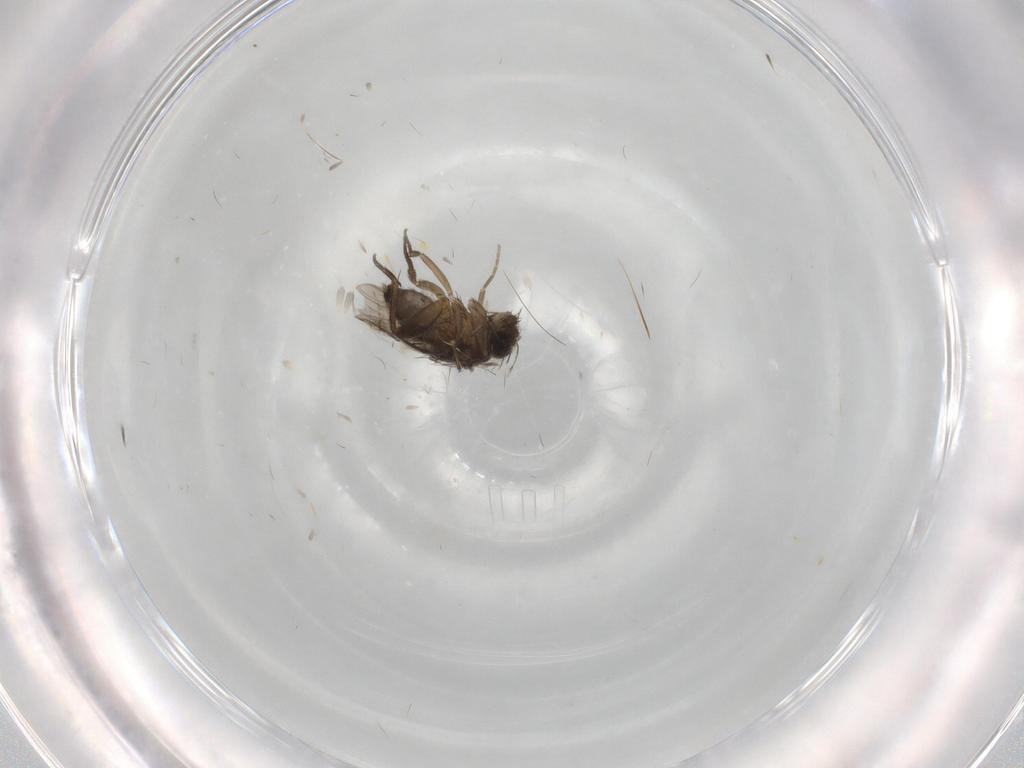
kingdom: Animalia
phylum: Arthropoda
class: Insecta
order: Diptera
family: Phoridae
